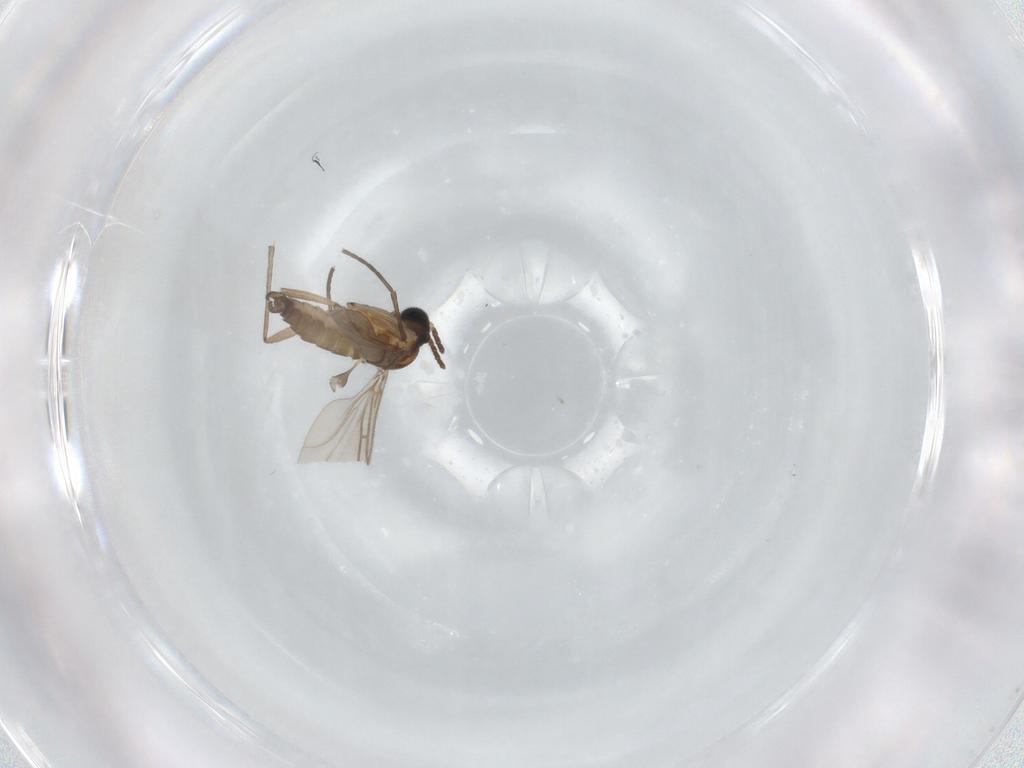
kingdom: Animalia
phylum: Arthropoda
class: Insecta
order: Diptera
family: Sciaridae
